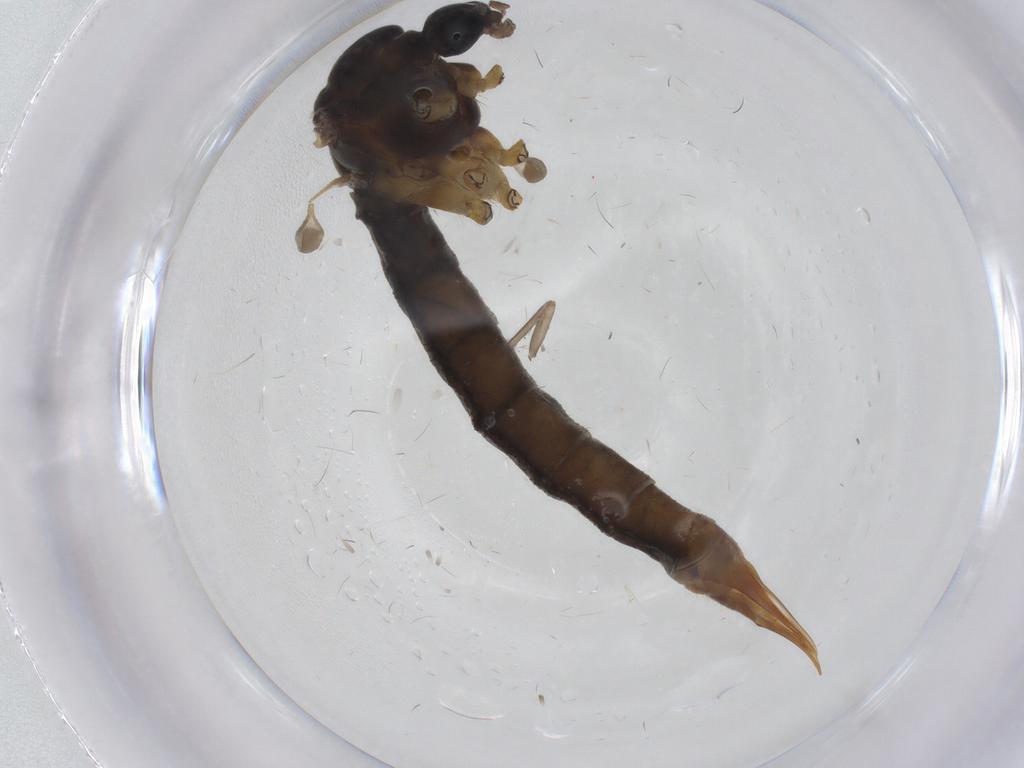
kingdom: Animalia
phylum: Arthropoda
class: Insecta
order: Diptera
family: Limoniidae
